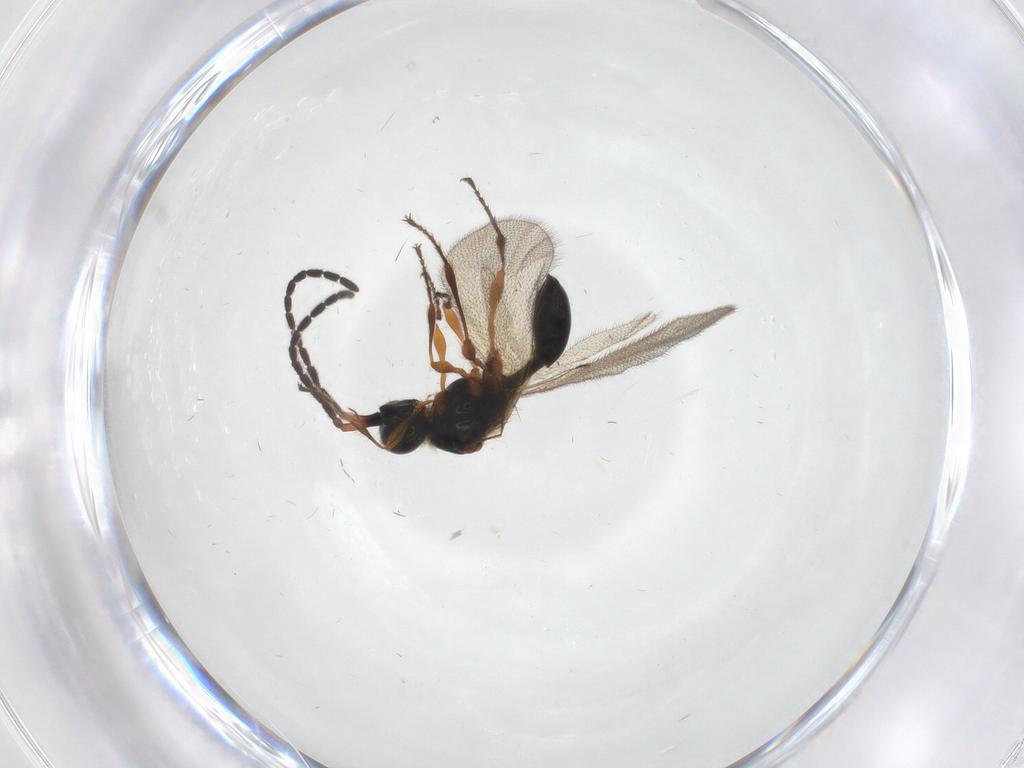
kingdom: Animalia
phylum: Arthropoda
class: Insecta
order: Hymenoptera
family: Diapriidae
